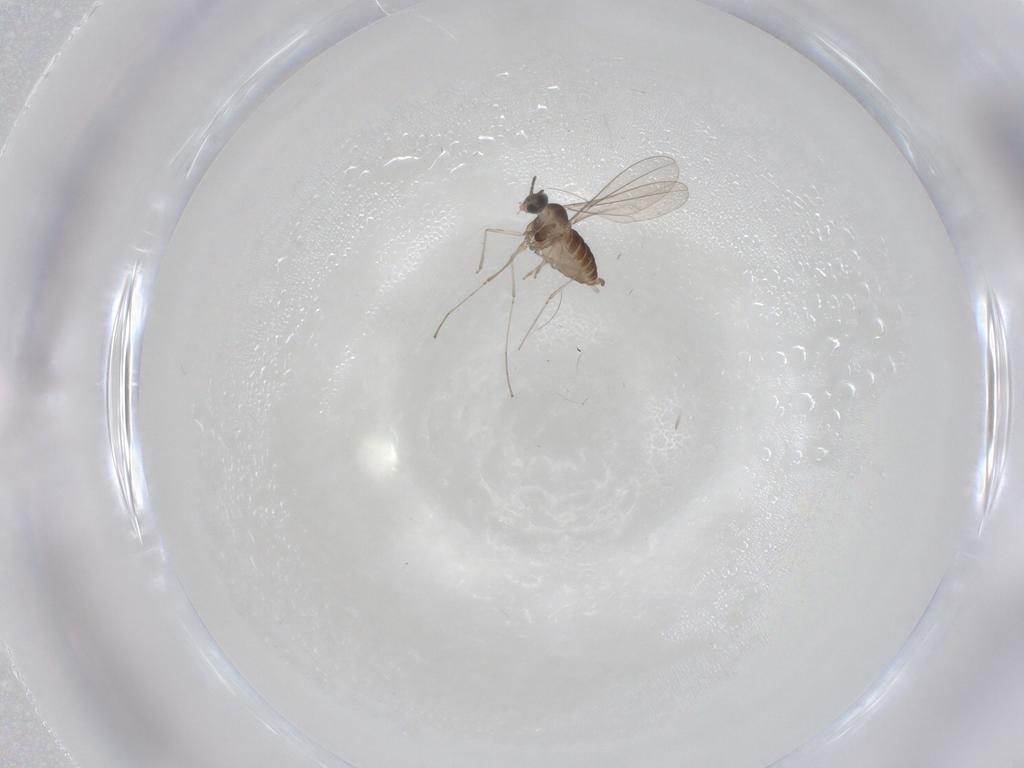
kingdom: Animalia
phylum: Arthropoda
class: Insecta
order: Diptera
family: Cecidomyiidae
